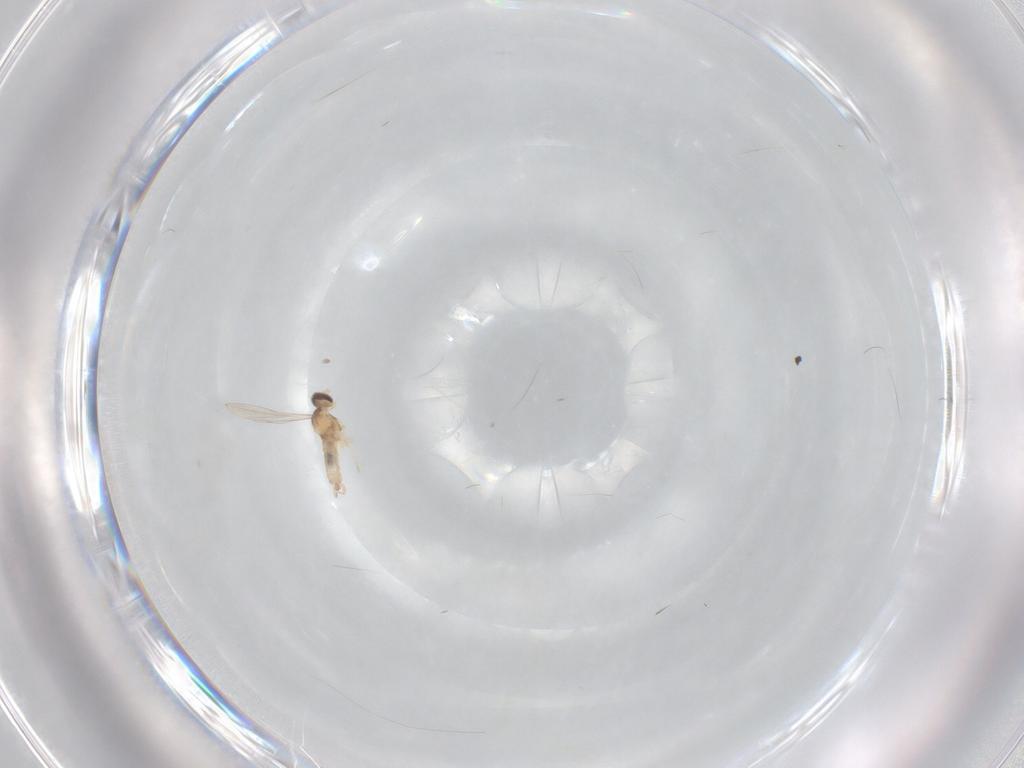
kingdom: Animalia
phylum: Arthropoda
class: Insecta
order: Diptera
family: Cecidomyiidae
